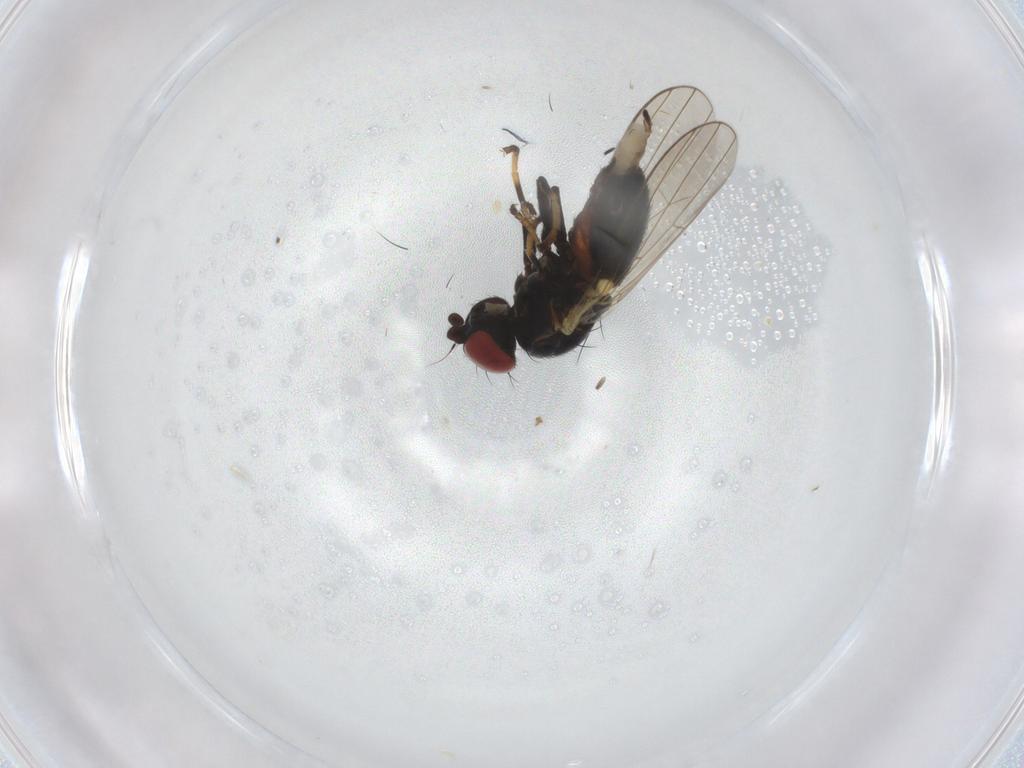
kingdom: Animalia
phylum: Arthropoda
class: Insecta
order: Diptera
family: Chamaemyiidae
